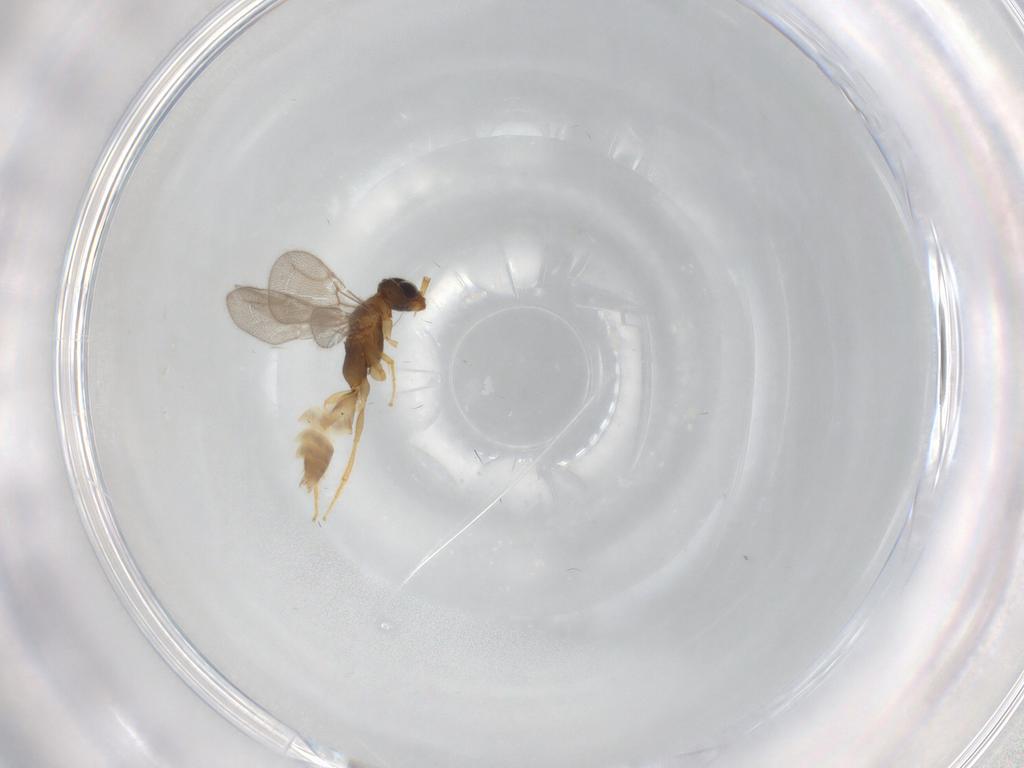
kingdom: Animalia
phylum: Arthropoda
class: Insecta
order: Hymenoptera
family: Bethylidae
